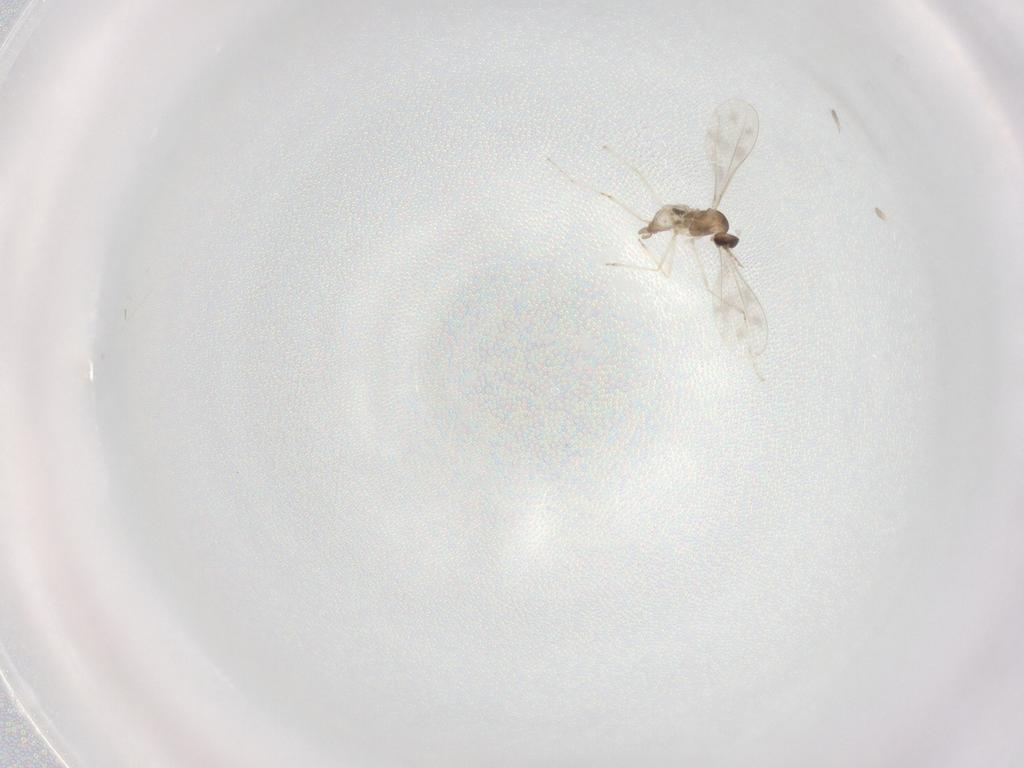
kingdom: Animalia
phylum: Arthropoda
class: Insecta
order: Diptera
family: Cecidomyiidae
